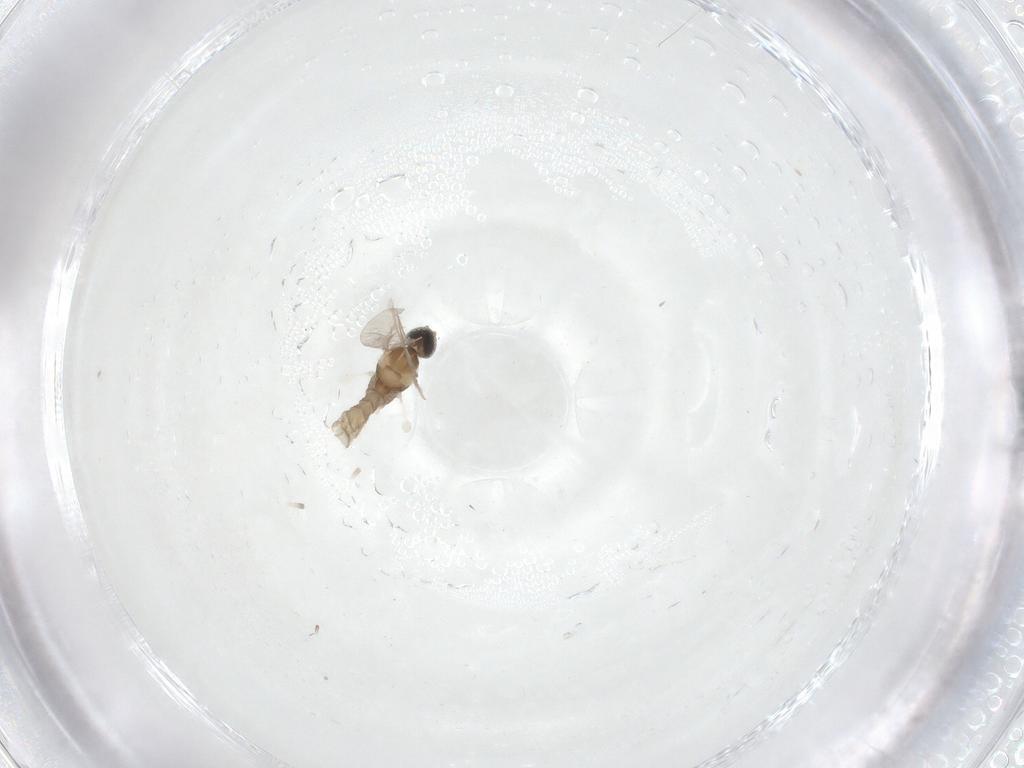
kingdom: Animalia
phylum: Arthropoda
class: Insecta
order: Diptera
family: Cecidomyiidae
